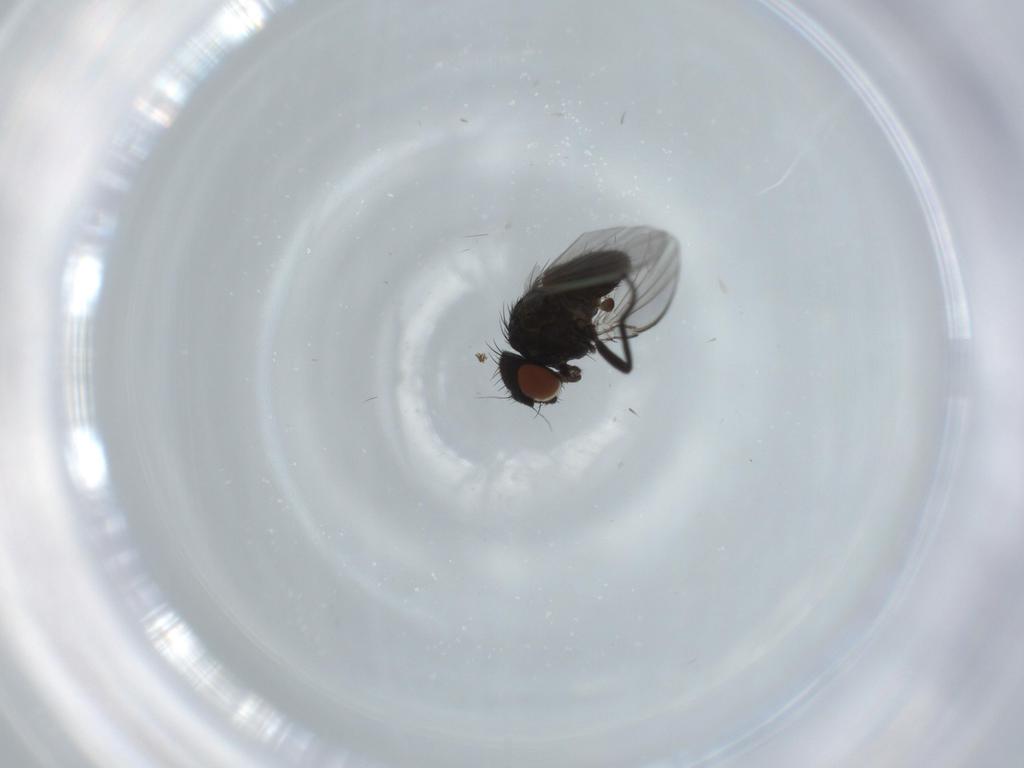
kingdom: Animalia
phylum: Arthropoda
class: Insecta
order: Diptera
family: Milichiidae
